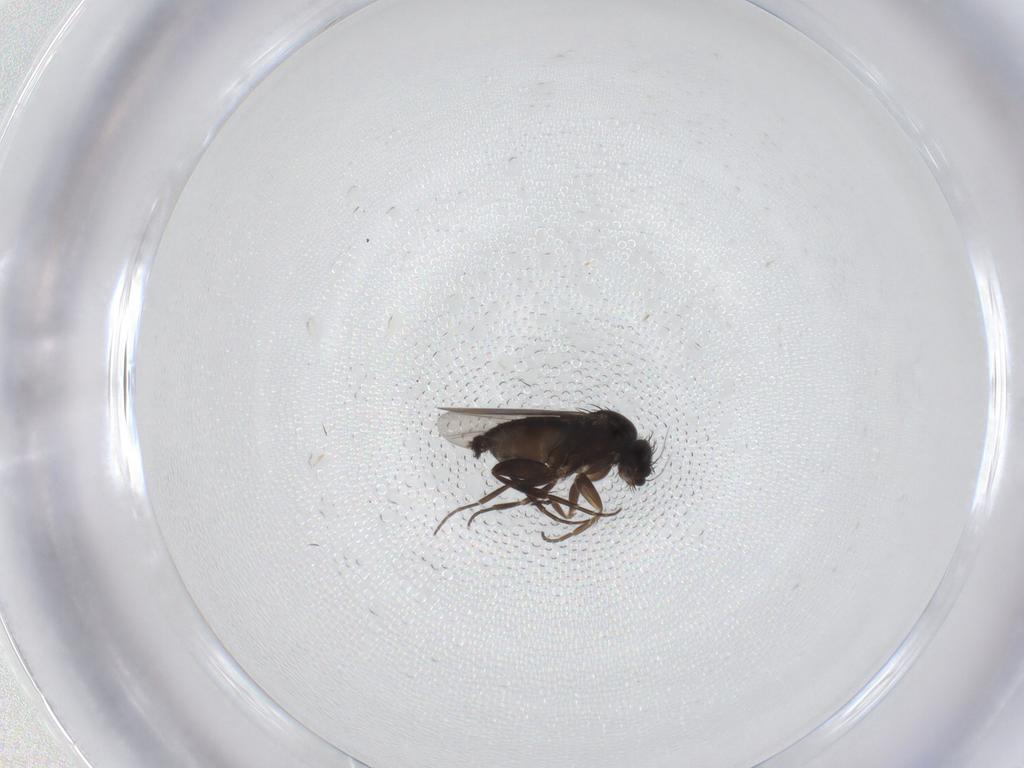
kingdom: Animalia
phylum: Arthropoda
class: Insecta
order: Diptera
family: Phoridae
